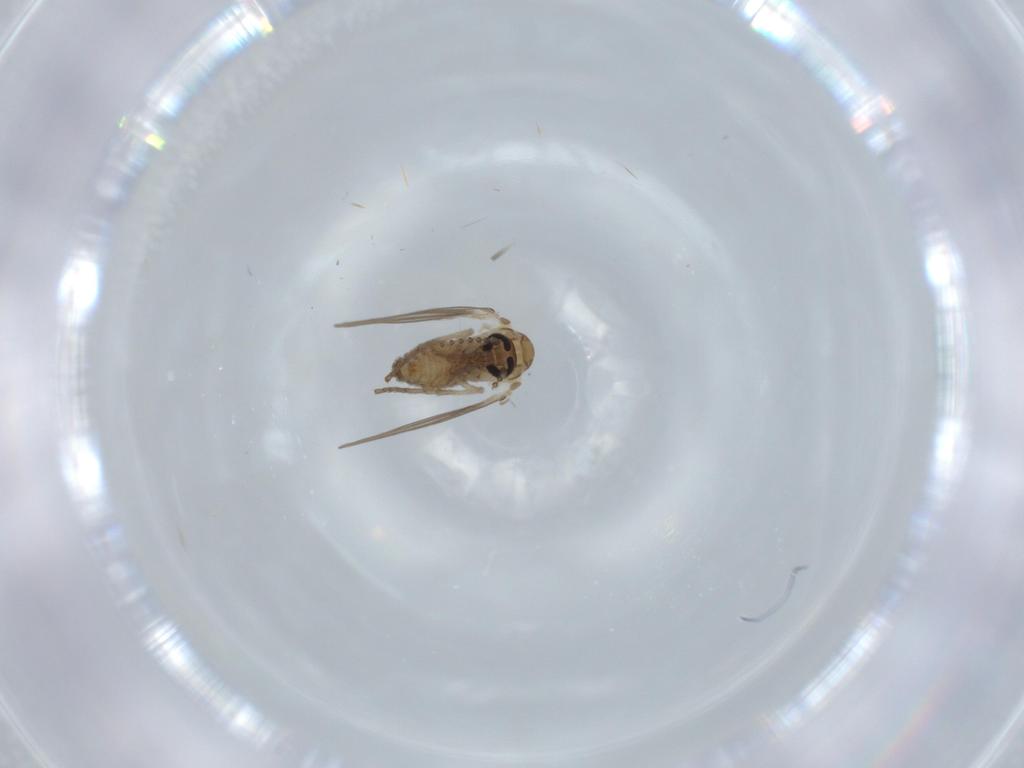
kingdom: Animalia
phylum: Arthropoda
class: Insecta
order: Diptera
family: Psychodidae
